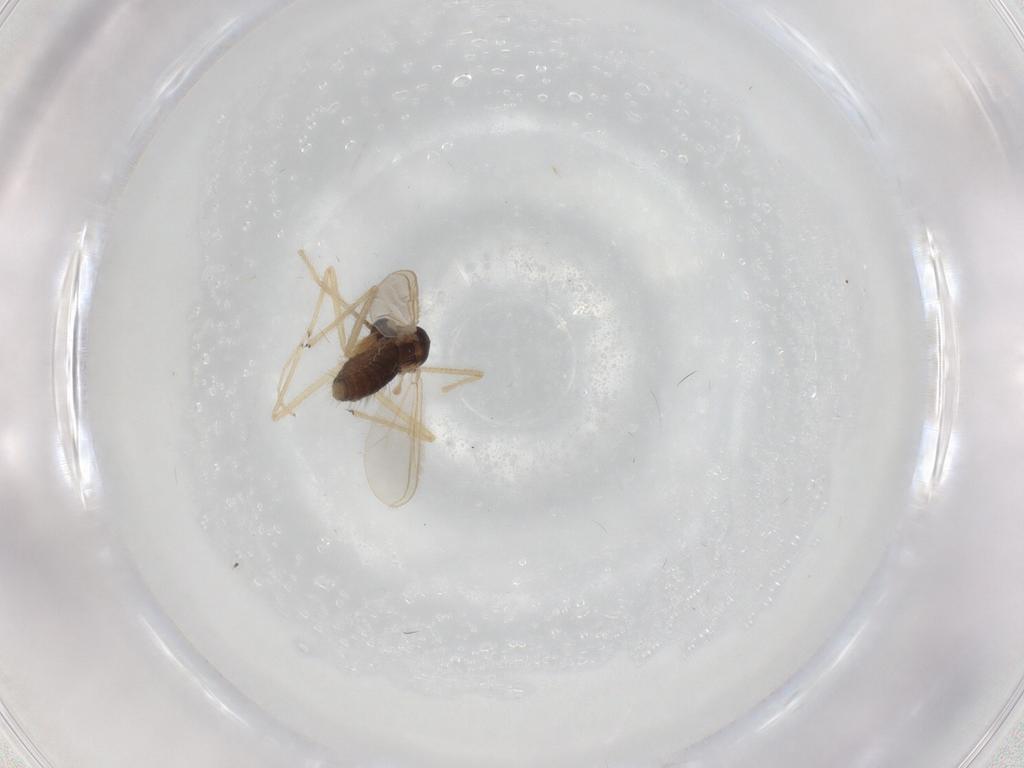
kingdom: Animalia
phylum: Arthropoda
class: Insecta
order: Diptera
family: Chironomidae
